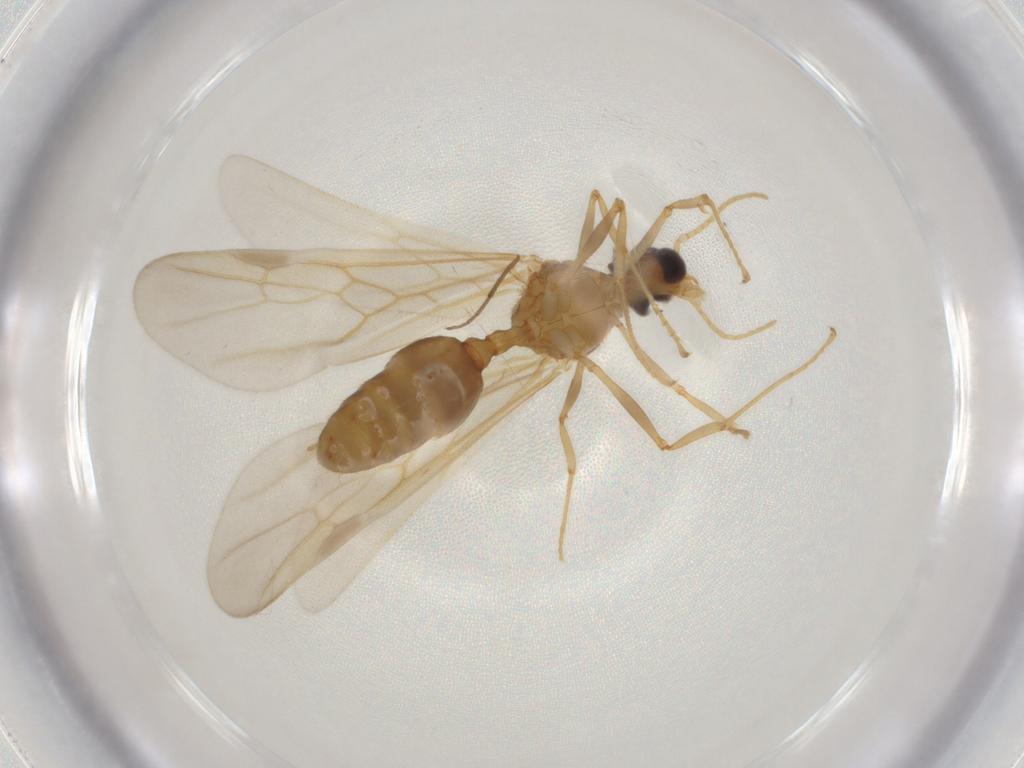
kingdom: Animalia
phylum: Arthropoda
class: Insecta
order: Hymenoptera
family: Formicidae
